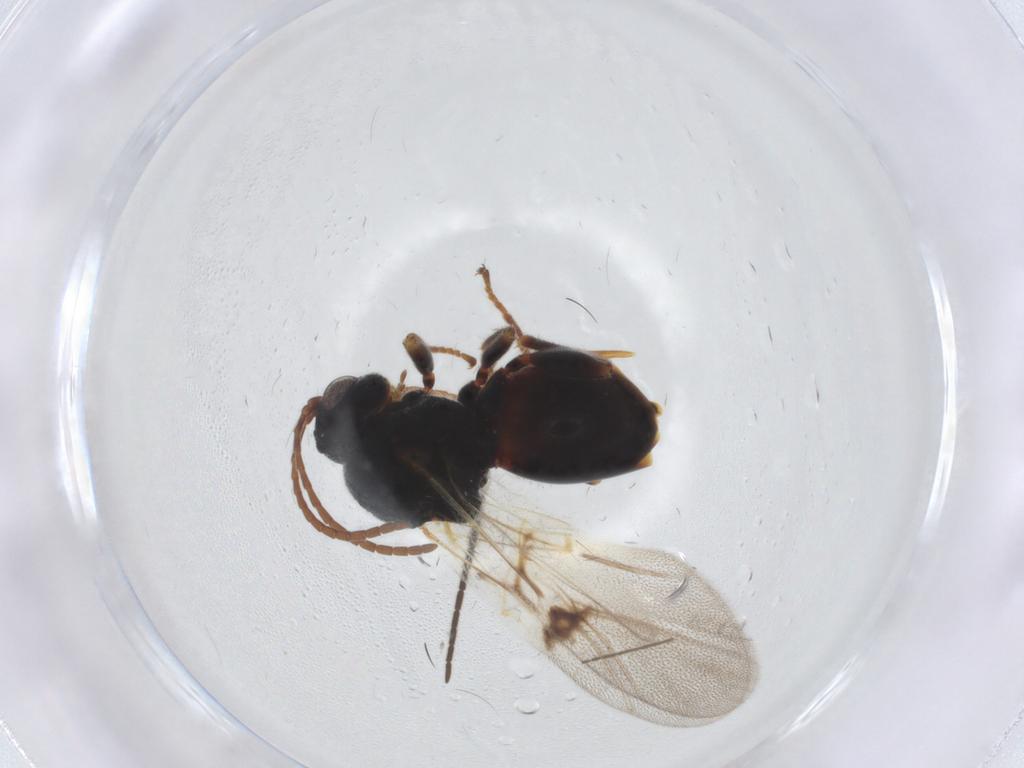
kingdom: Animalia
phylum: Arthropoda
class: Insecta
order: Hymenoptera
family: Cynipidae
